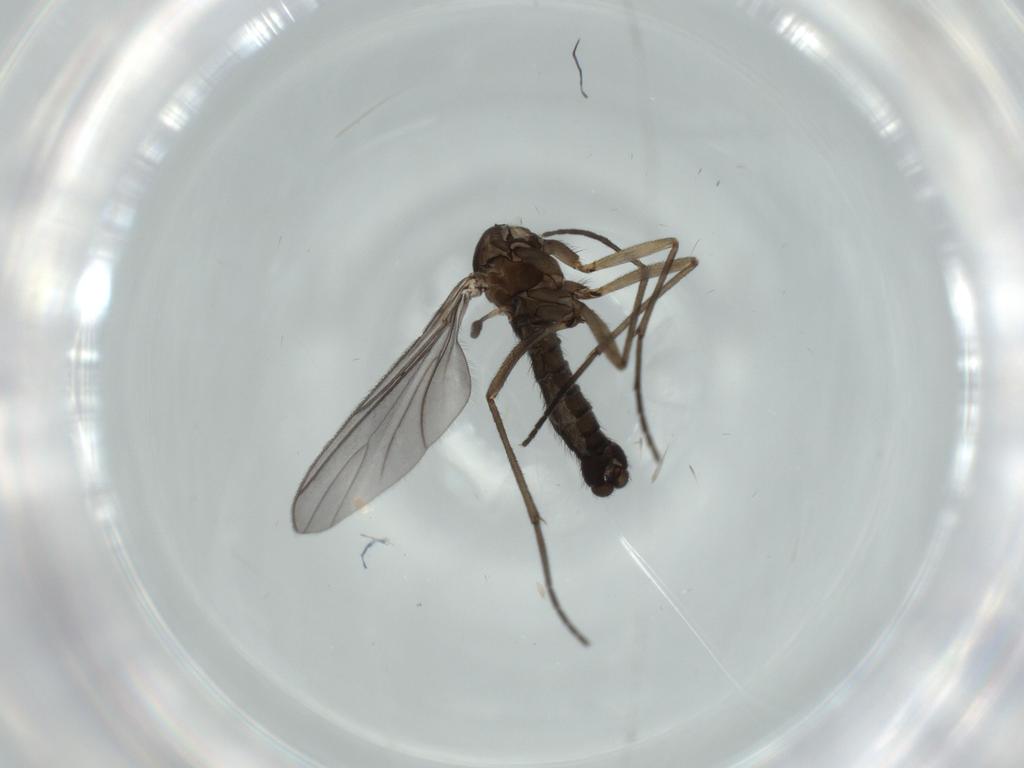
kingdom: Animalia
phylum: Arthropoda
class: Insecta
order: Diptera
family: Sciaridae
